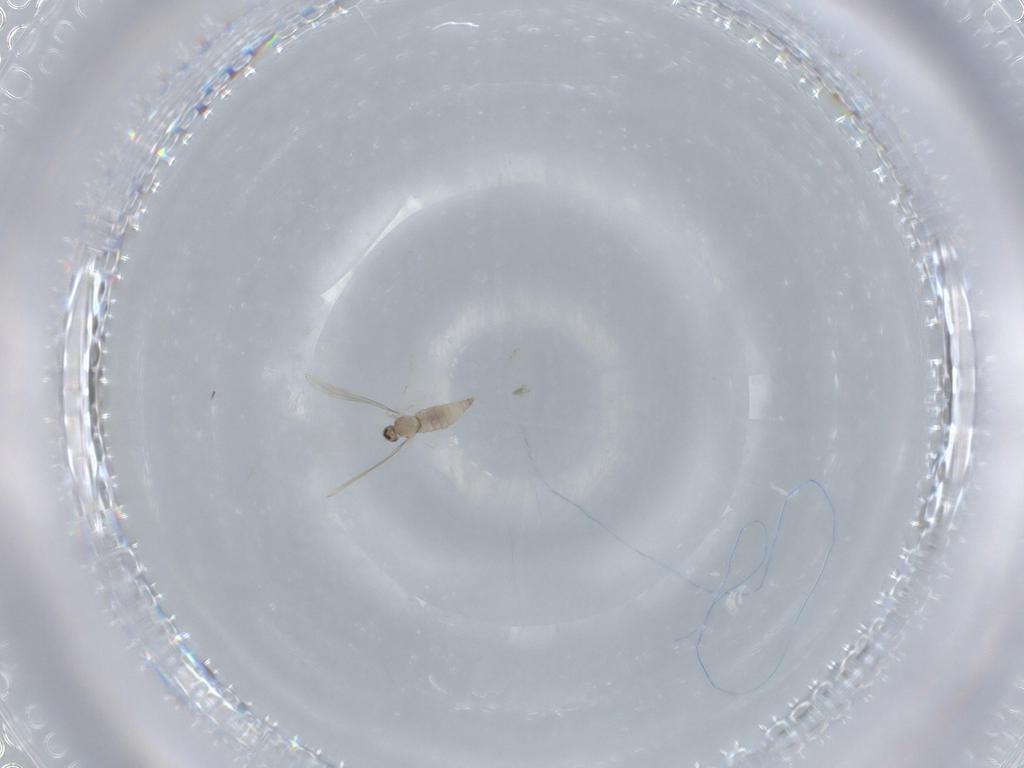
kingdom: Animalia
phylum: Arthropoda
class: Insecta
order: Diptera
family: Cecidomyiidae
